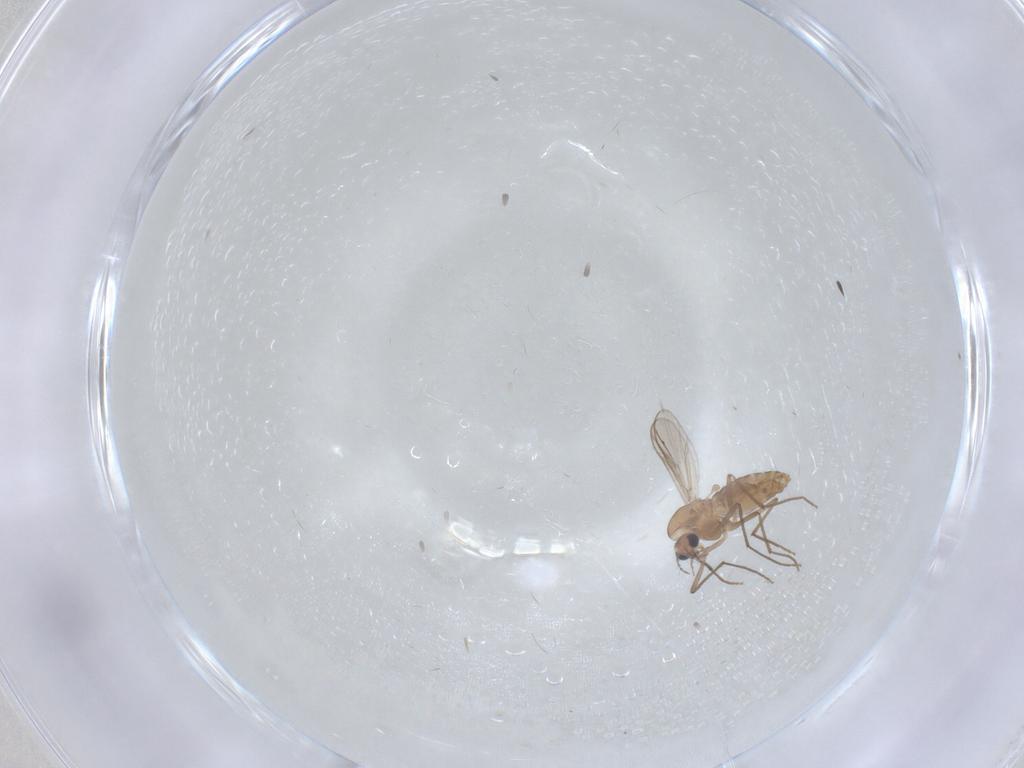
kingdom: Animalia
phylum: Arthropoda
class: Insecta
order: Diptera
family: Chironomidae
